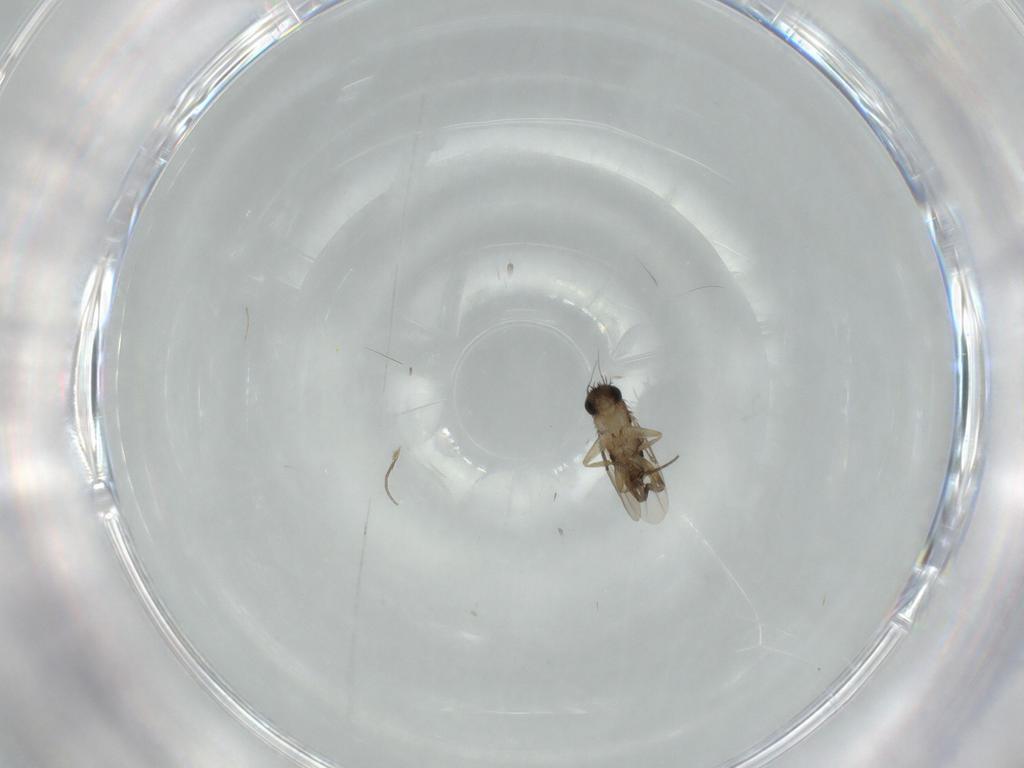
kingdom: Animalia
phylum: Arthropoda
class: Insecta
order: Diptera
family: Phoridae
